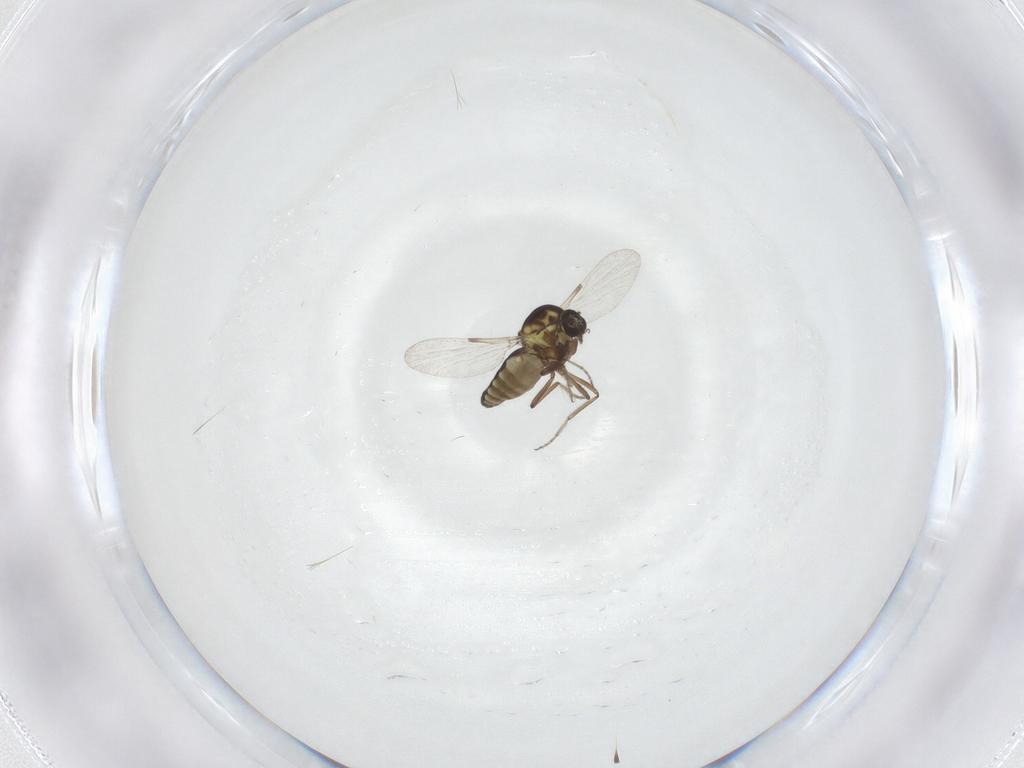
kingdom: Animalia
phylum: Arthropoda
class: Insecta
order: Diptera
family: Ceratopogonidae
